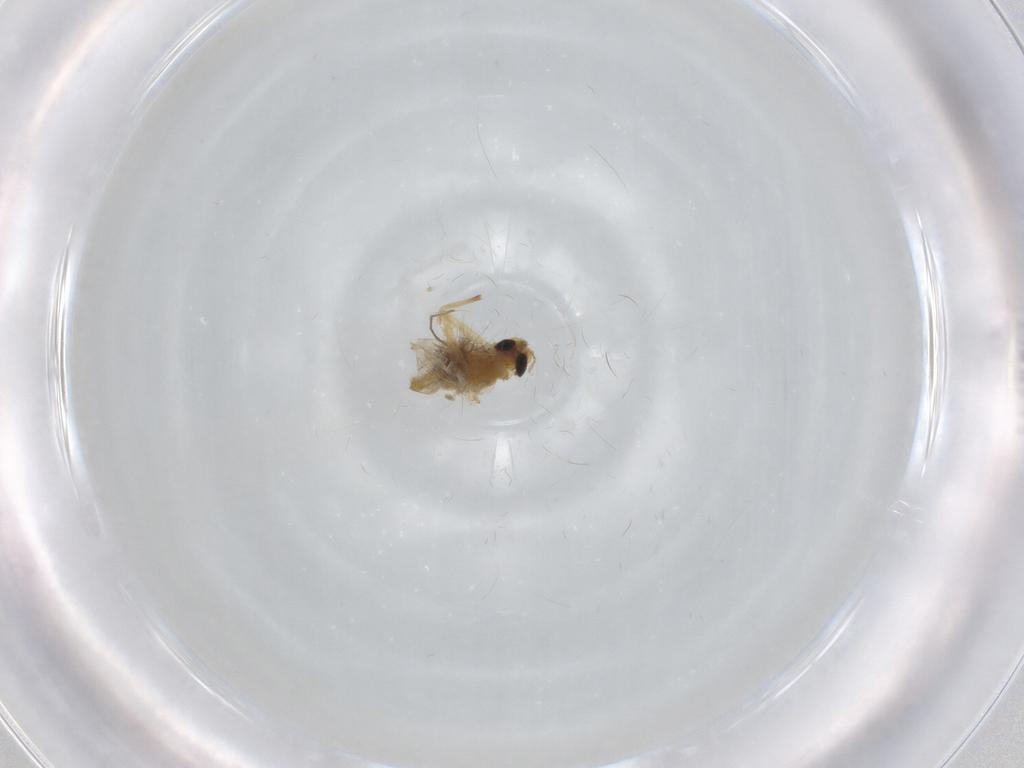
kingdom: Animalia
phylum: Arthropoda
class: Insecta
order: Diptera
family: Chironomidae
